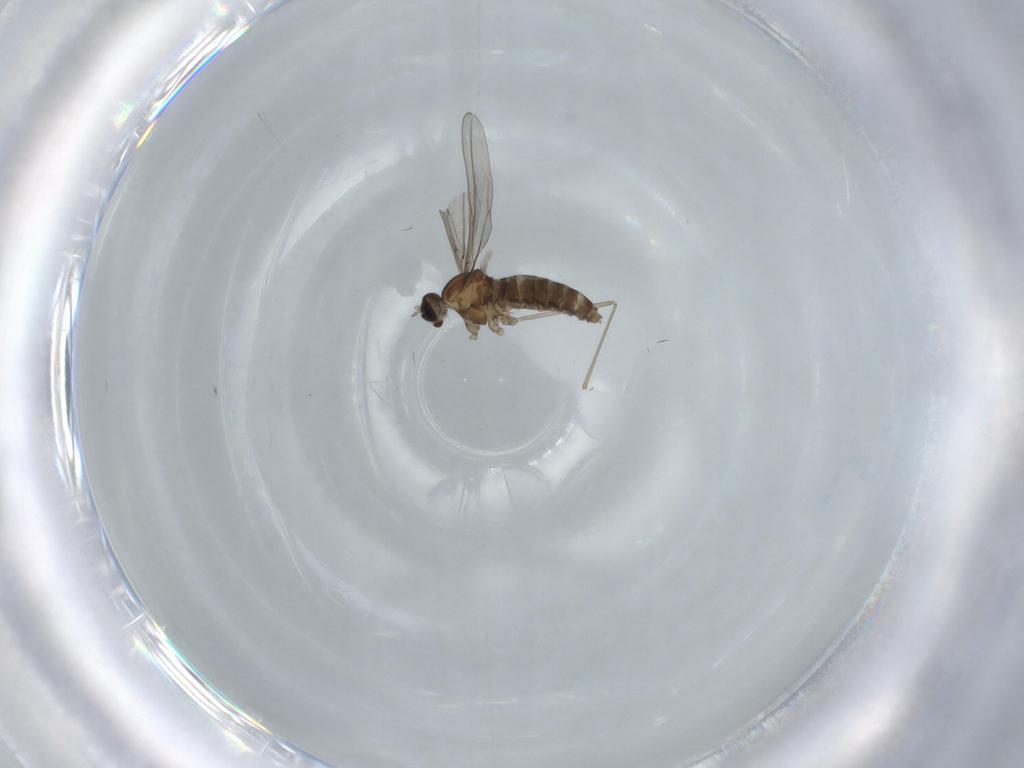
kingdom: Animalia
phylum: Arthropoda
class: Insecta
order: Diptera
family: Cecidomyiidae
